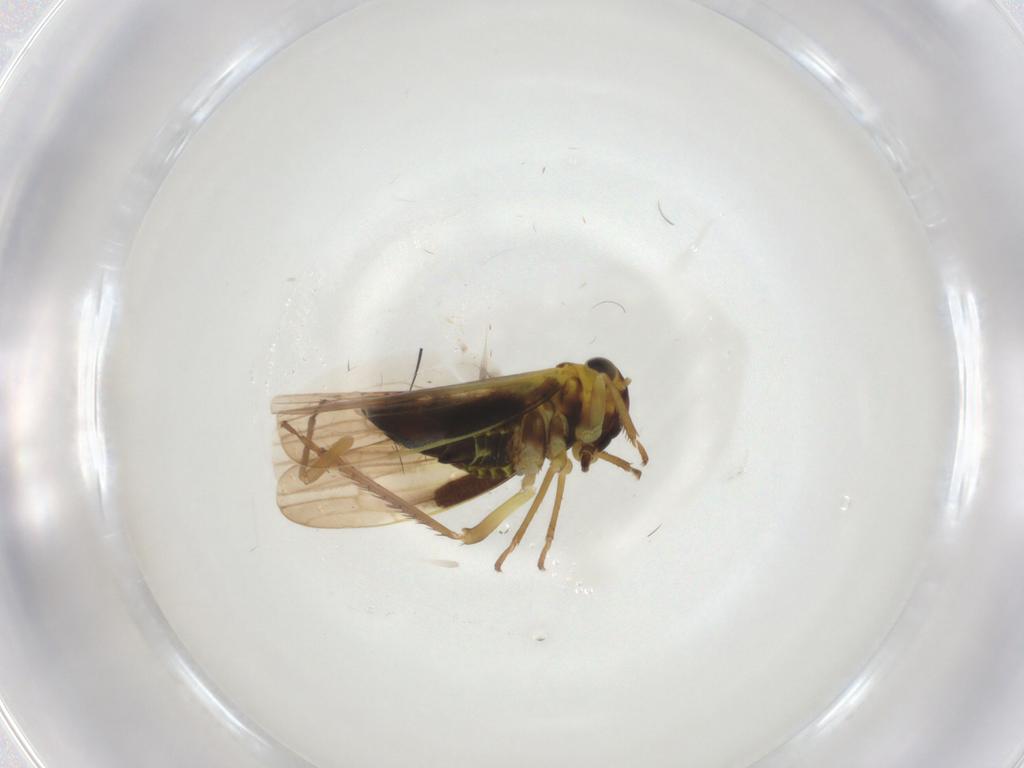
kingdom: Animalia
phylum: Arthropoda
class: Insecta
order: Hemiptera
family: Cicadellidae
